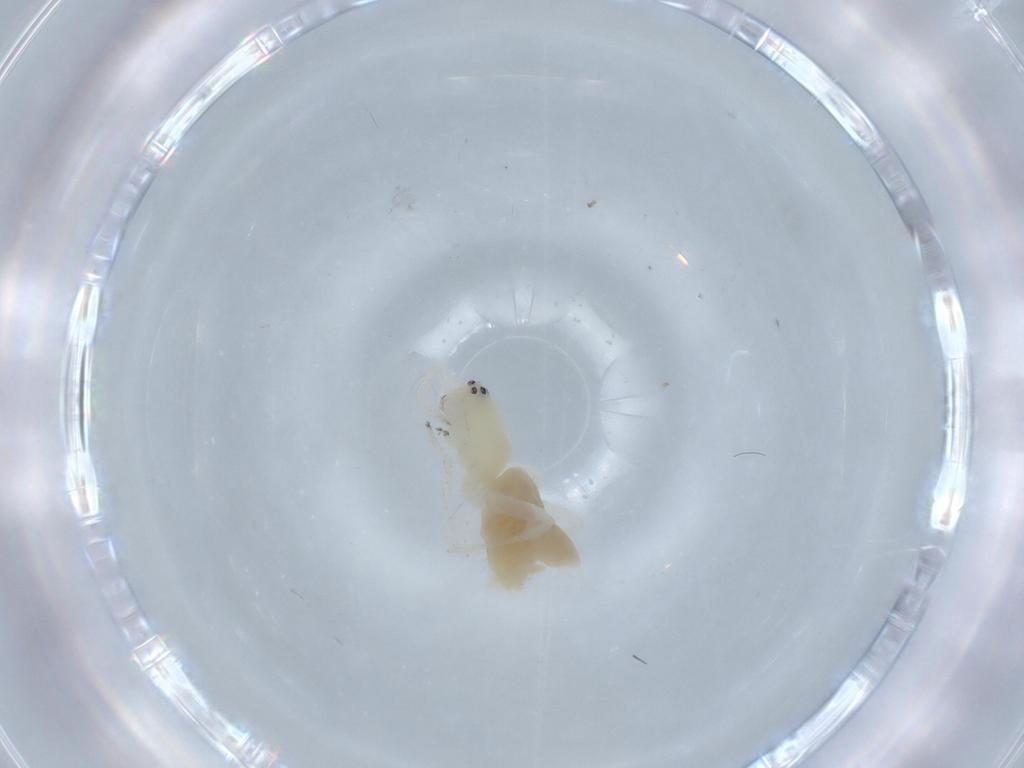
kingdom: Animalia
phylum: Arthropoda
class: Arachnida
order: Araneae
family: Anyphaenidae
